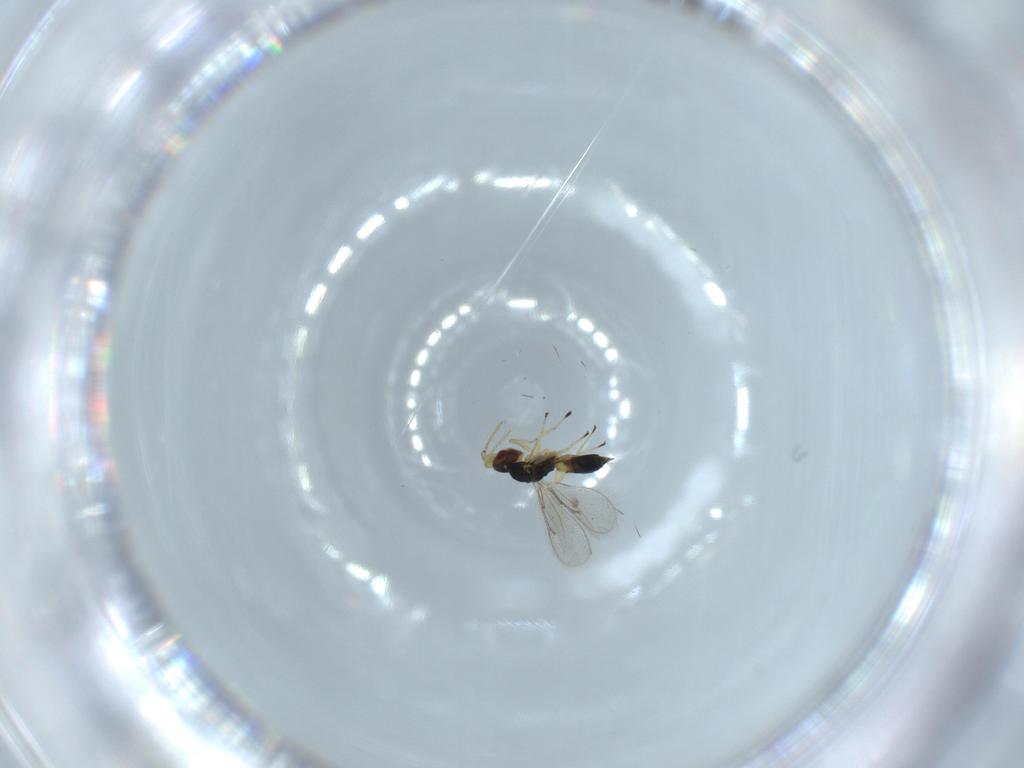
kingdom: Animalia
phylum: Arthropoda
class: Insecta
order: Hymenoptera
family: Eulophidae
